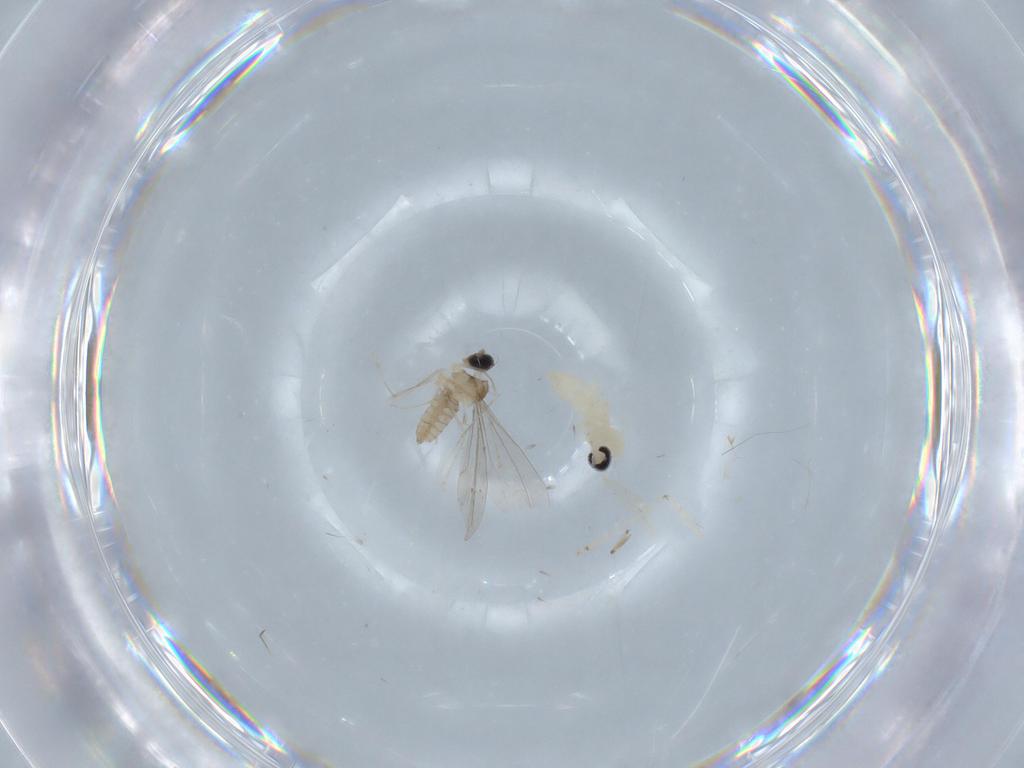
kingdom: Animalia
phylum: Arthropoda
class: Insecta
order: Diptera
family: Cecidomyiidae
